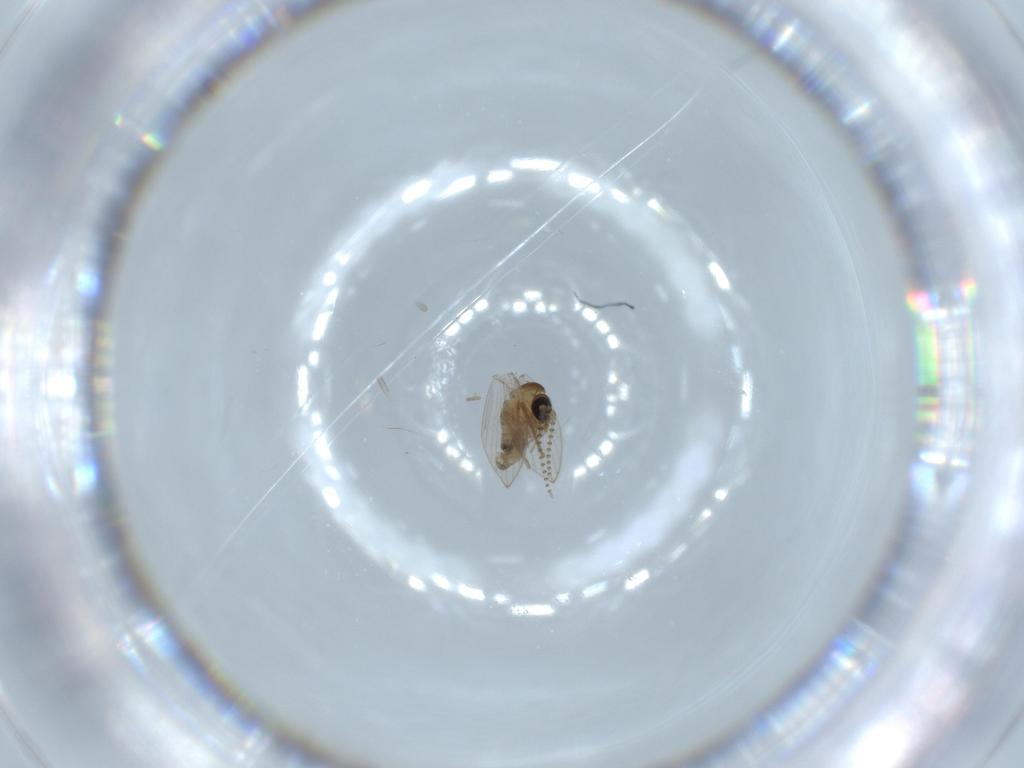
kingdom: Animalia
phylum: Arthropoda
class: Insecta
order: Diptera
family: Psychodidae
